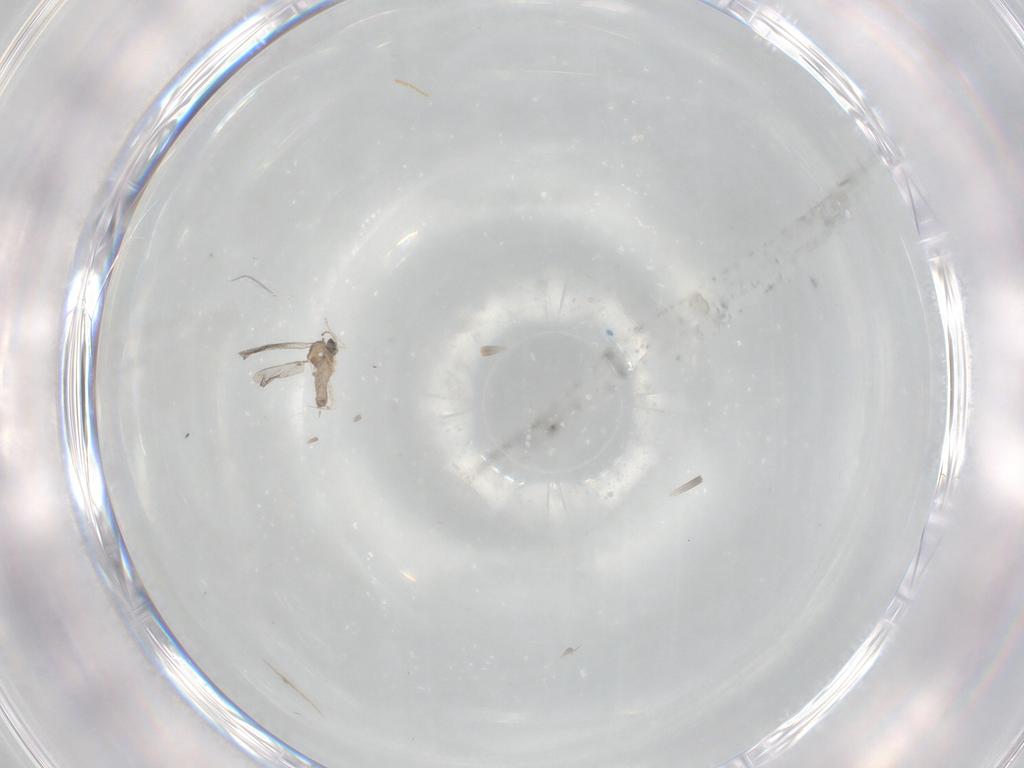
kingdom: Animalia
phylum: Arthropoda
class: Insecta
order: Diptera
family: Cecidomyiidae
